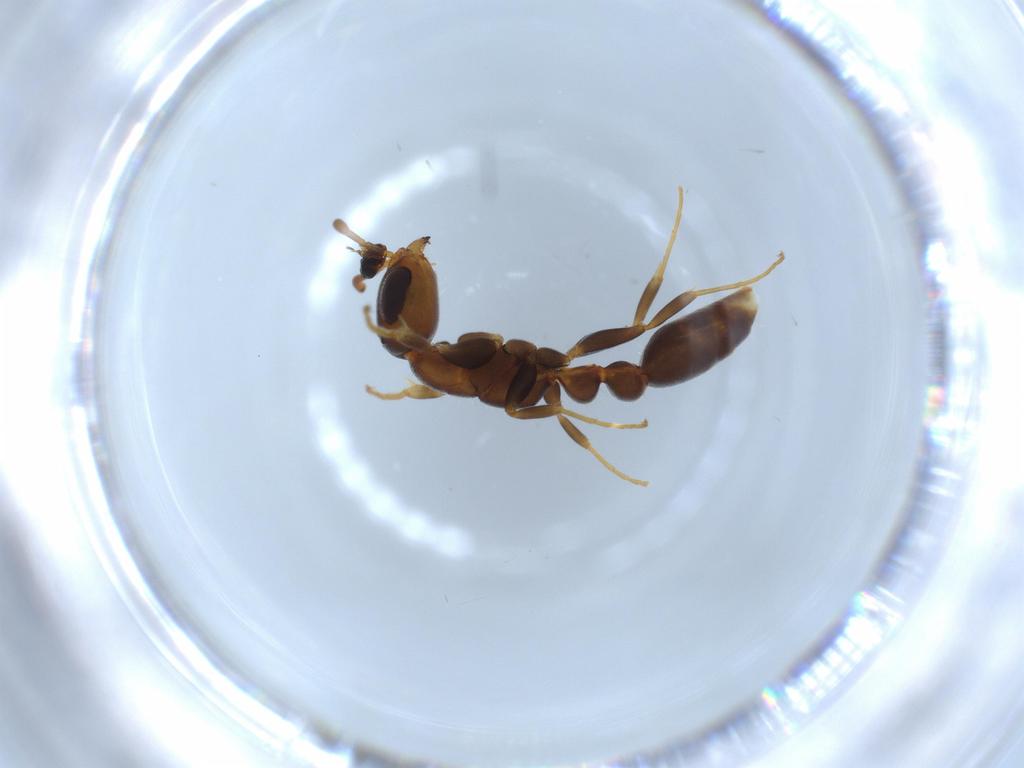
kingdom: Animalia
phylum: Arthropoda
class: Insecta
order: Hymenoptera
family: Formicidae
